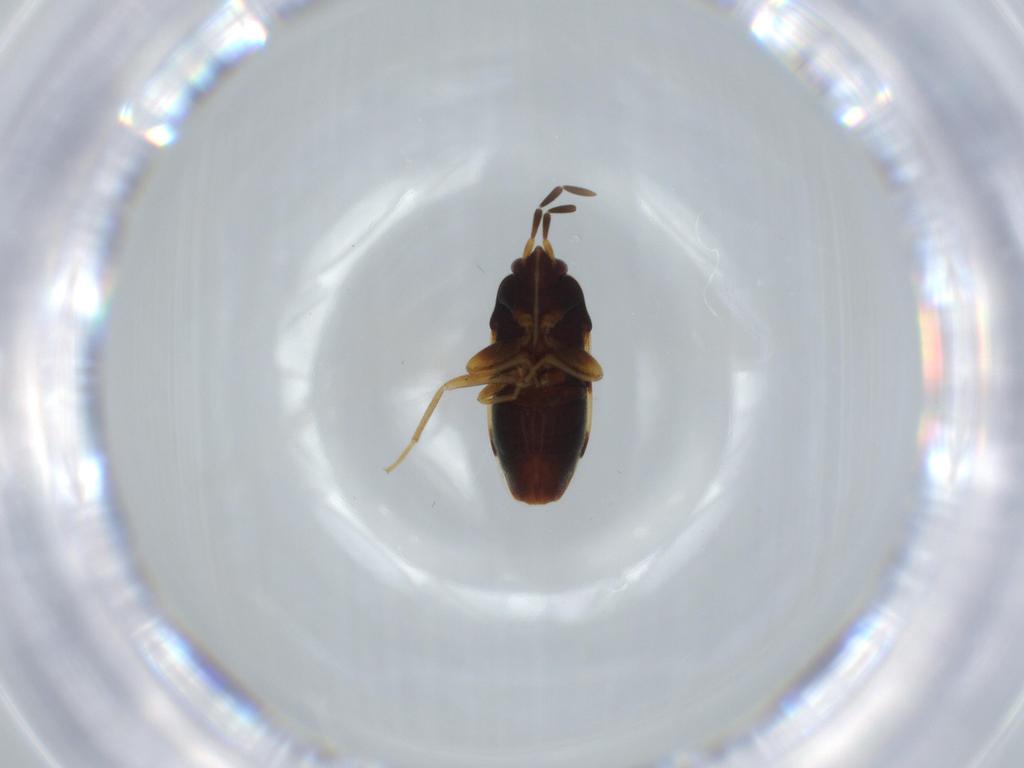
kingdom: Animalia
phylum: Arthropoda
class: Insecta
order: Hemiptera
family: Rhyparochromidae
